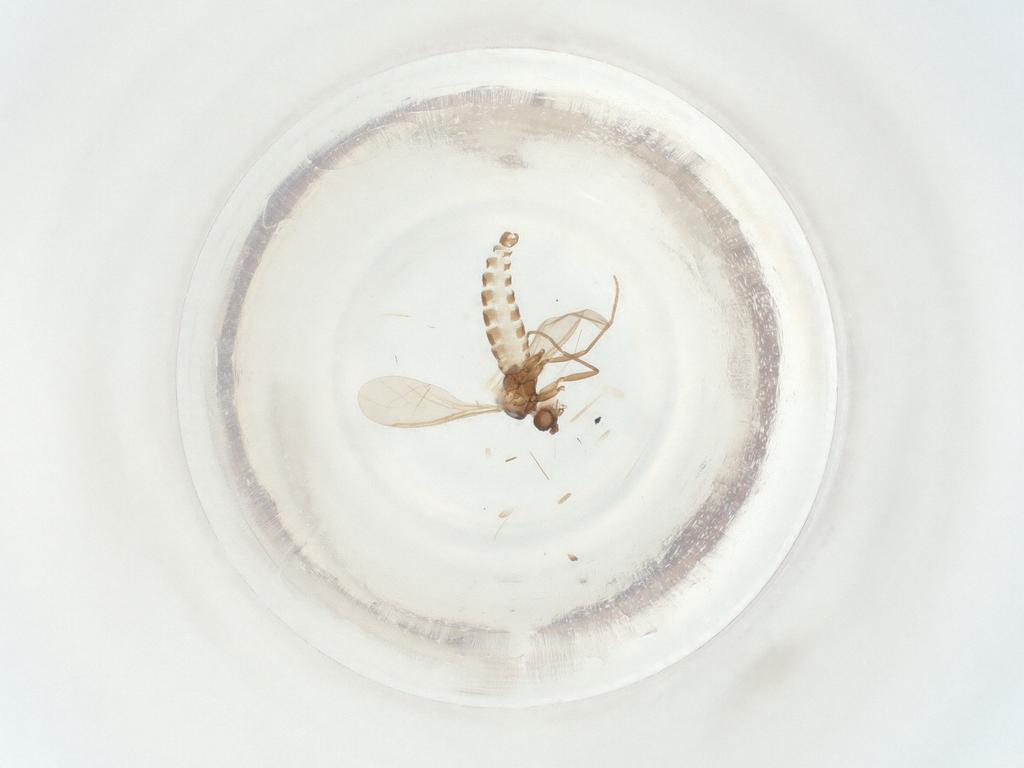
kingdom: Animalia
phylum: Arthropoda
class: Insecta
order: Diptera
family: Sciaridae
